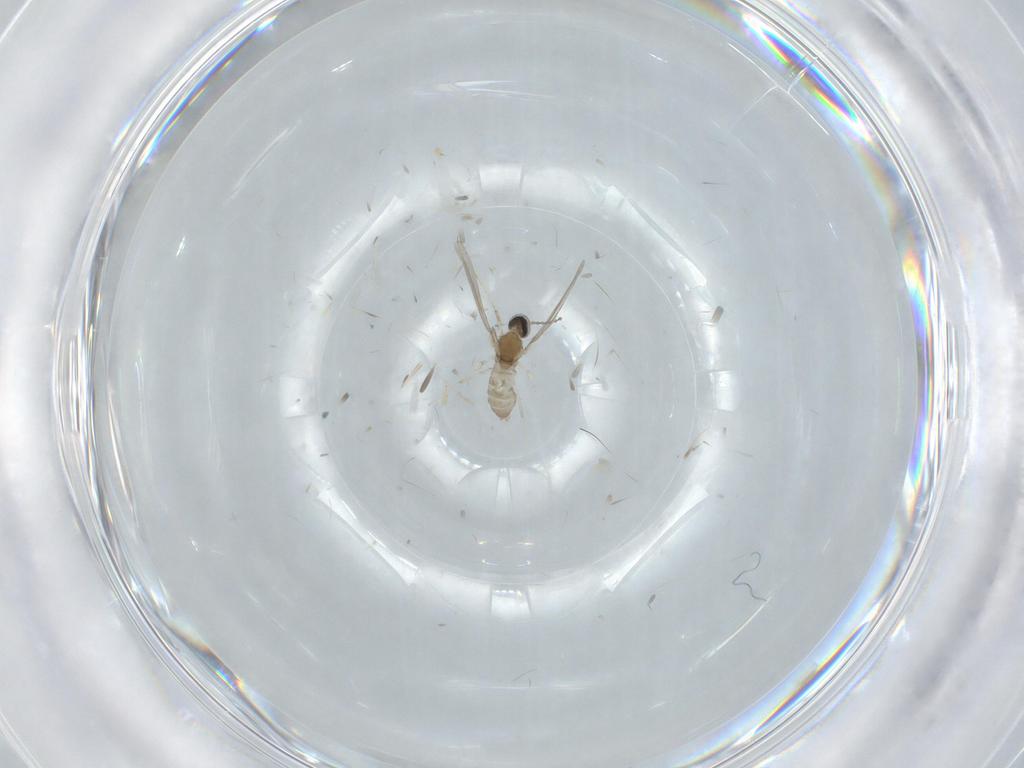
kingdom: Animalia
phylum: Arthropoda
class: Insecta
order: Diptera
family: Cecidomyiidae
